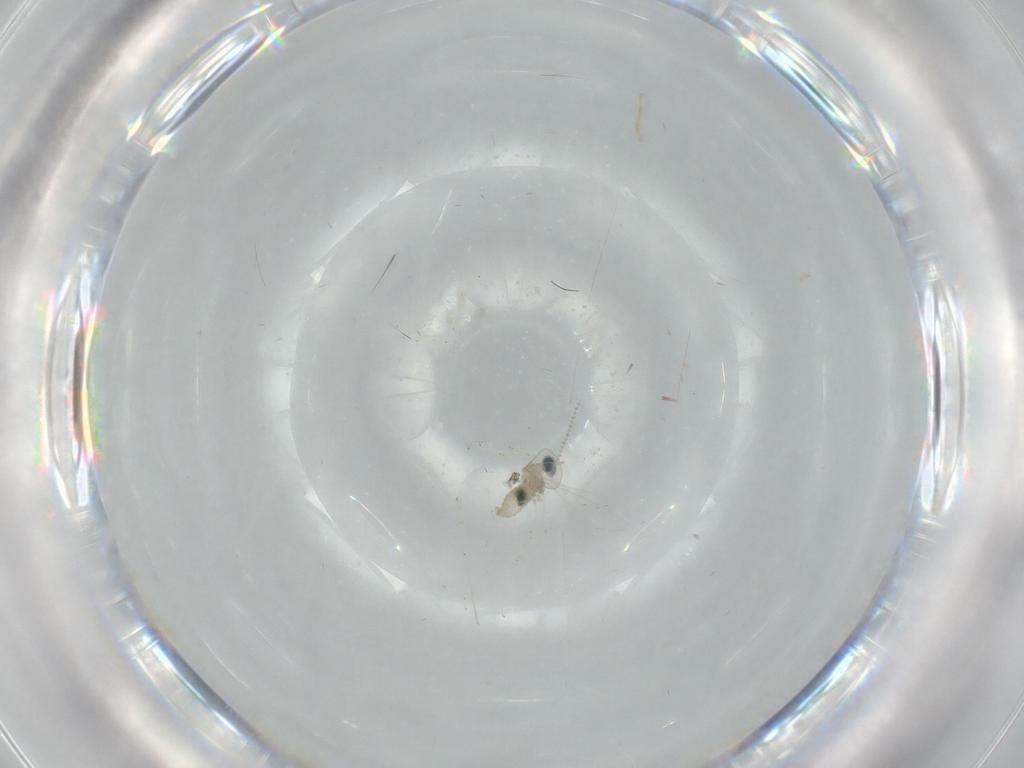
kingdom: Animalia
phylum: Arthropoda
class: Insecta
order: Diptera
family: Cecidomyiidae
